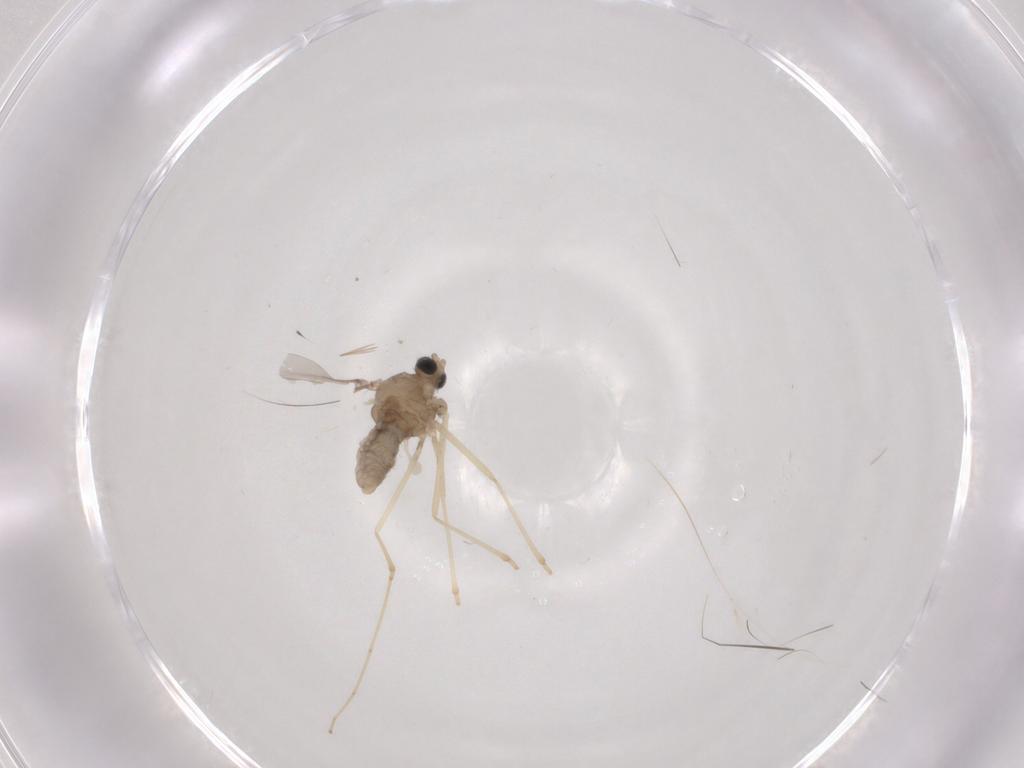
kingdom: Animalia
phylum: Arthropoda
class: Insecta
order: Diptera
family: Cecidomyiidae
